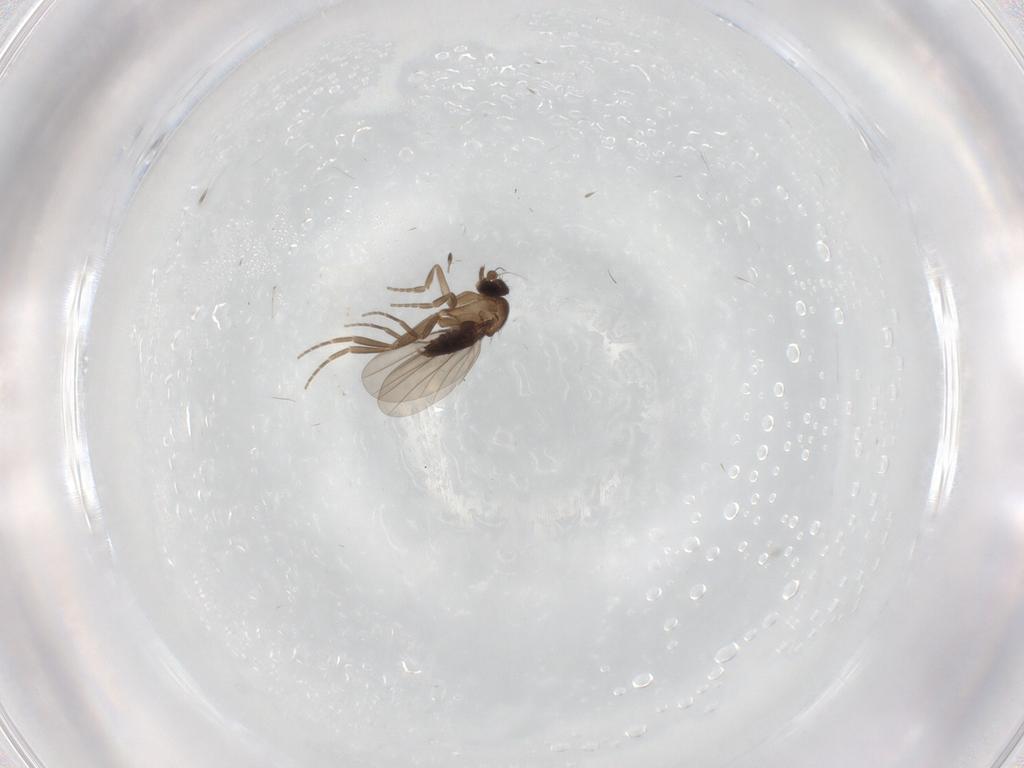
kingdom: Animalia
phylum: Arthropoda
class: Insecta
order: Diptera
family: Cecidomyiidae
